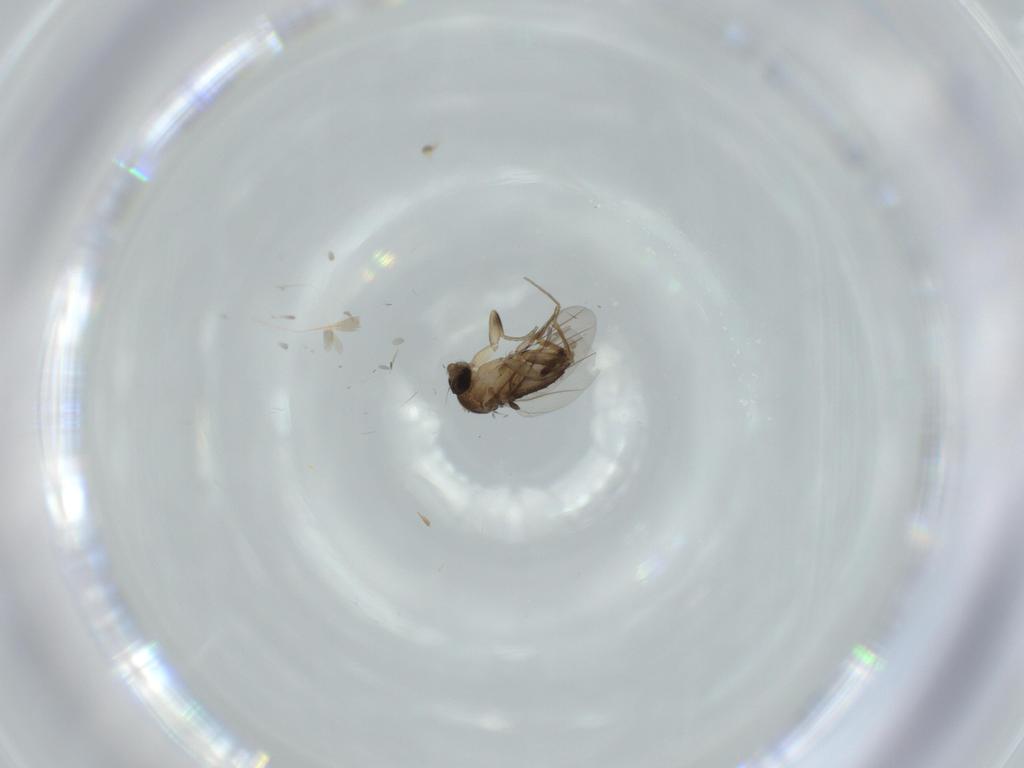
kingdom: Animalia
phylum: Arthropoda
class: Insecta
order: Diptera
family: Phoridae
